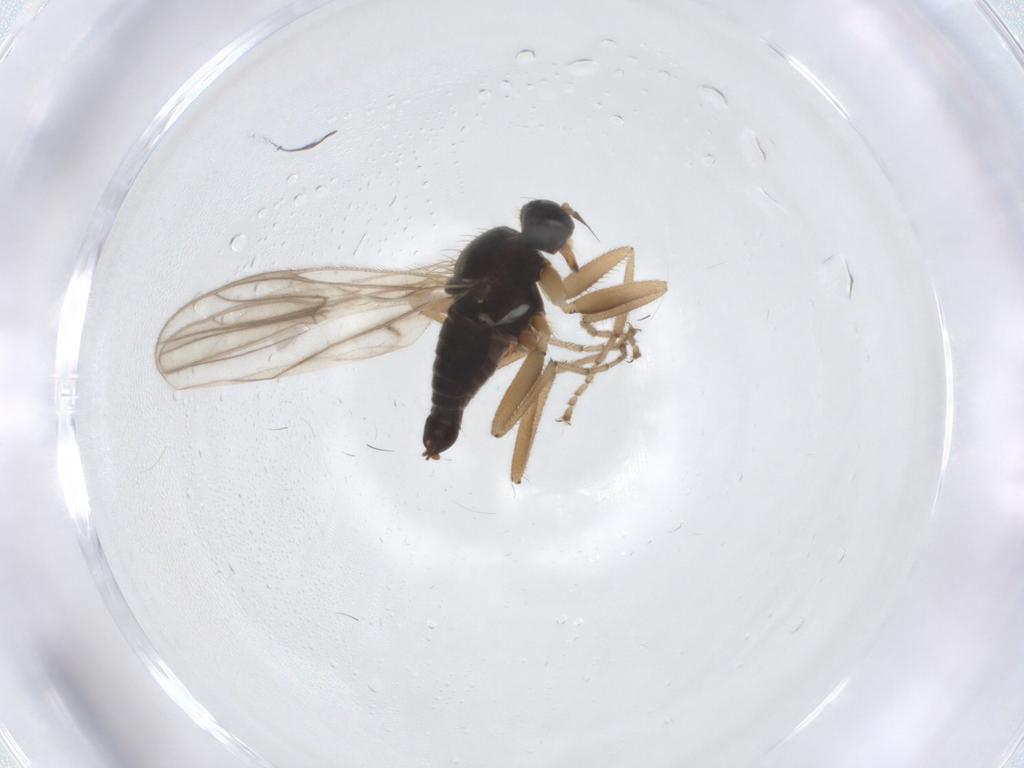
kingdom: Animalia
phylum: Arthropoda
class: Insecta
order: Diptera
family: Hybotidae
